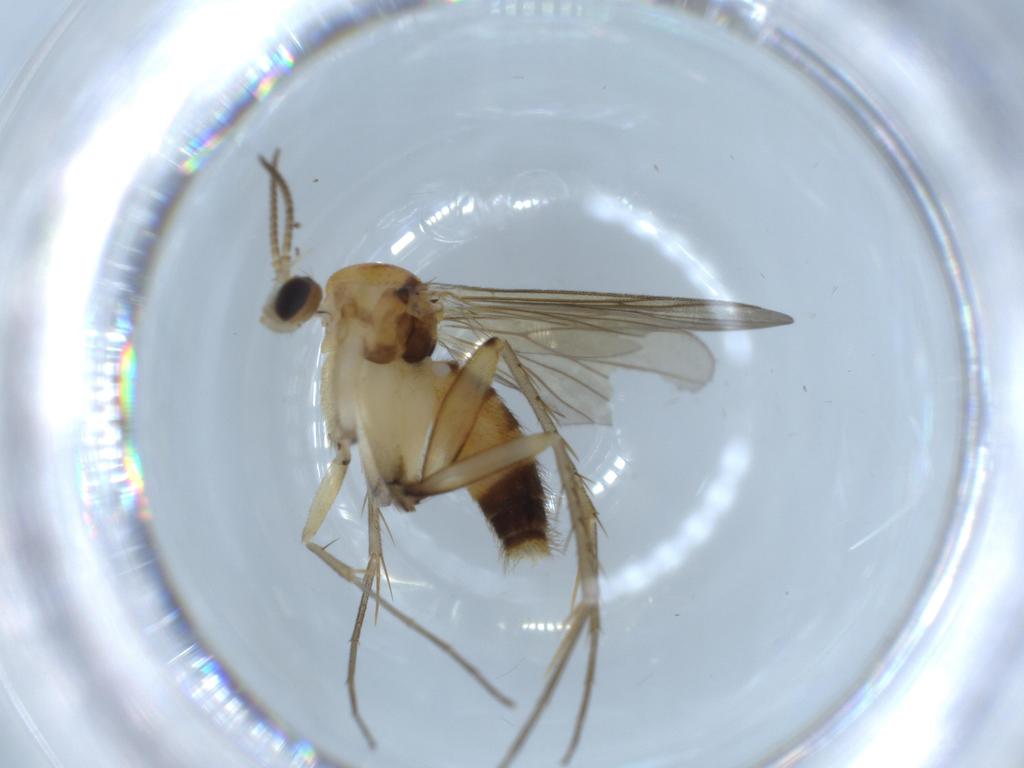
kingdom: Animalia
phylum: Arthropoda
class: Insecta
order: Diptera
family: Mycetophilidae
